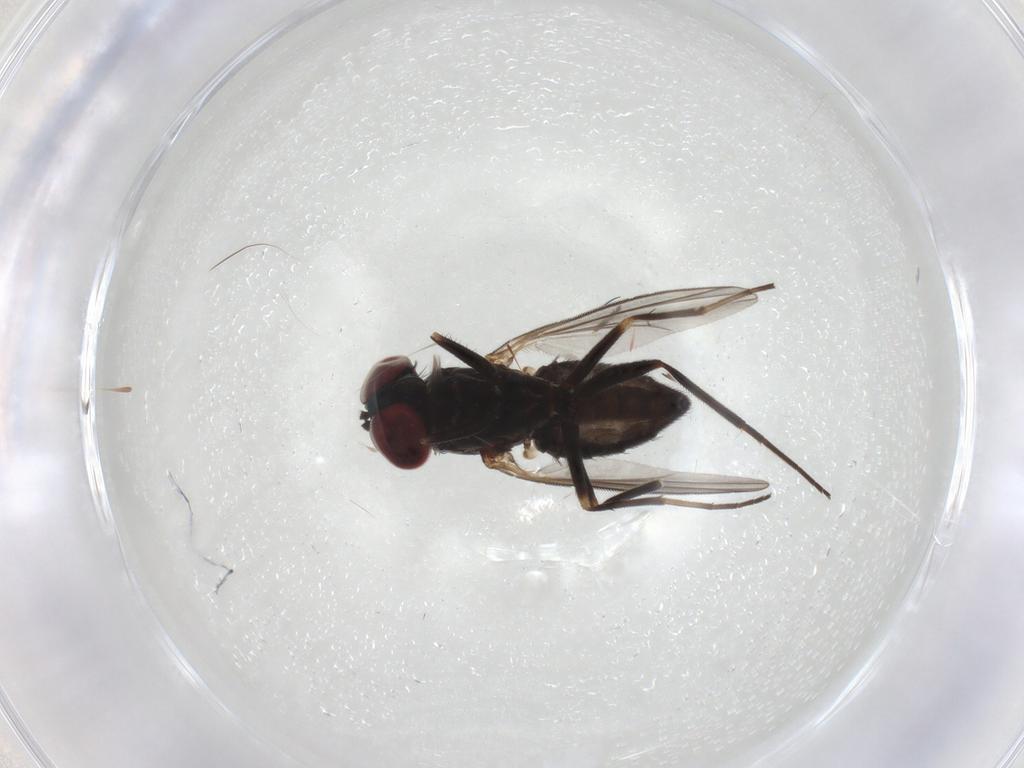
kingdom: Animalia
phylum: Arthropoda
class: Insecta
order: Diptera
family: Dolichopodidae
